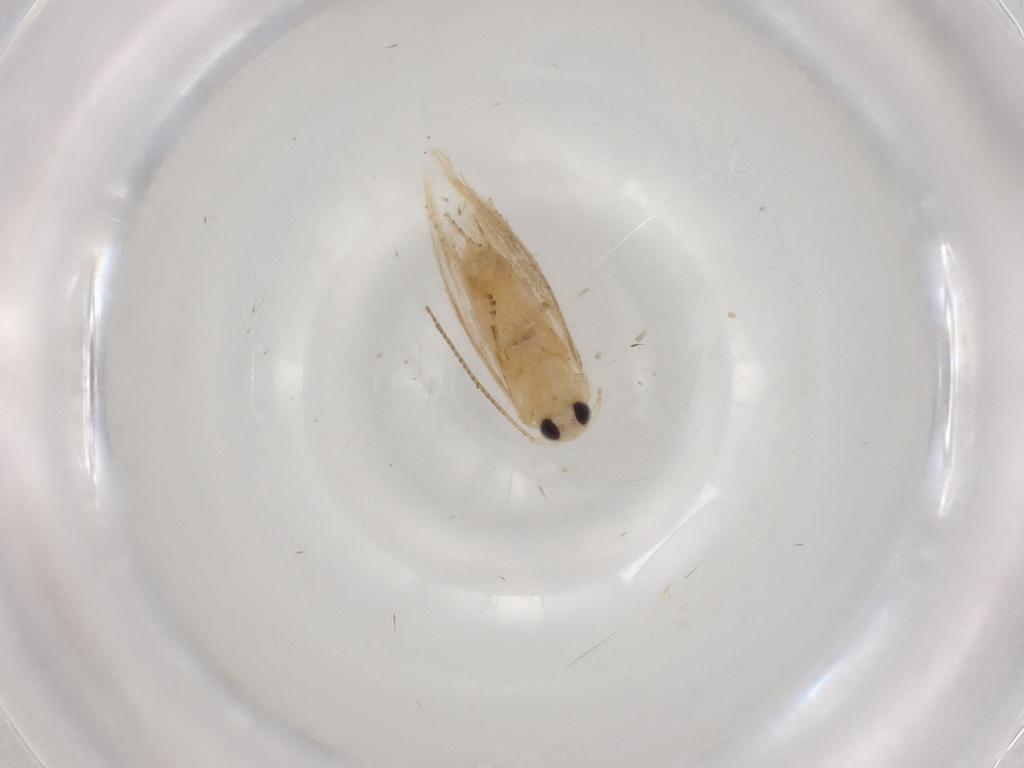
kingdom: Animalia
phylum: Arthropoda
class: Insecta
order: Lepidoptera
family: Bucculatricidae
